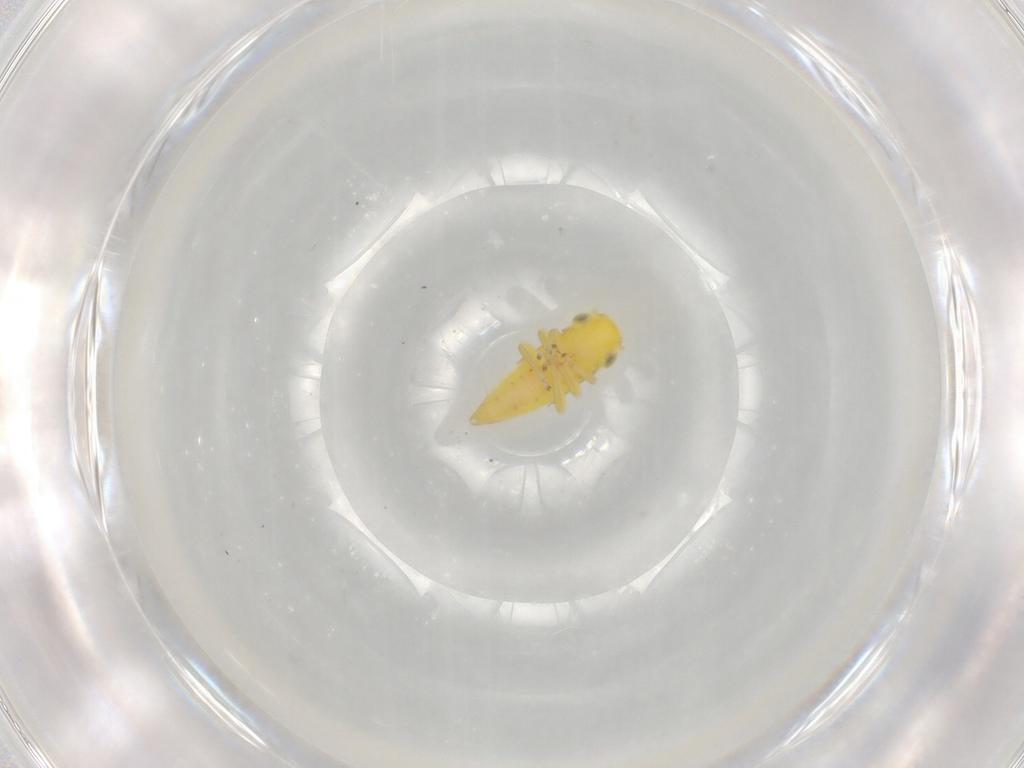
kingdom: Animalia
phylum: Arthropoda
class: Insecta
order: Hemiptera
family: Cicadellidae
